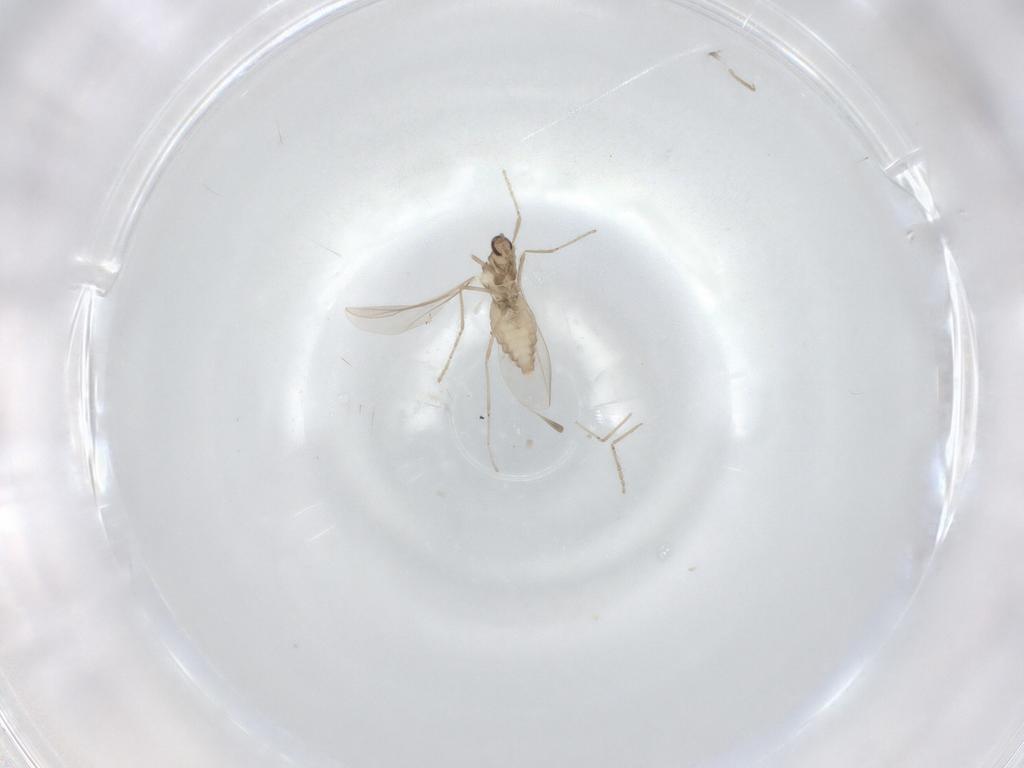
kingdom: Animalia
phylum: Arthropoda
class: Insecta
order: Diptera
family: Cecidomyiidae
